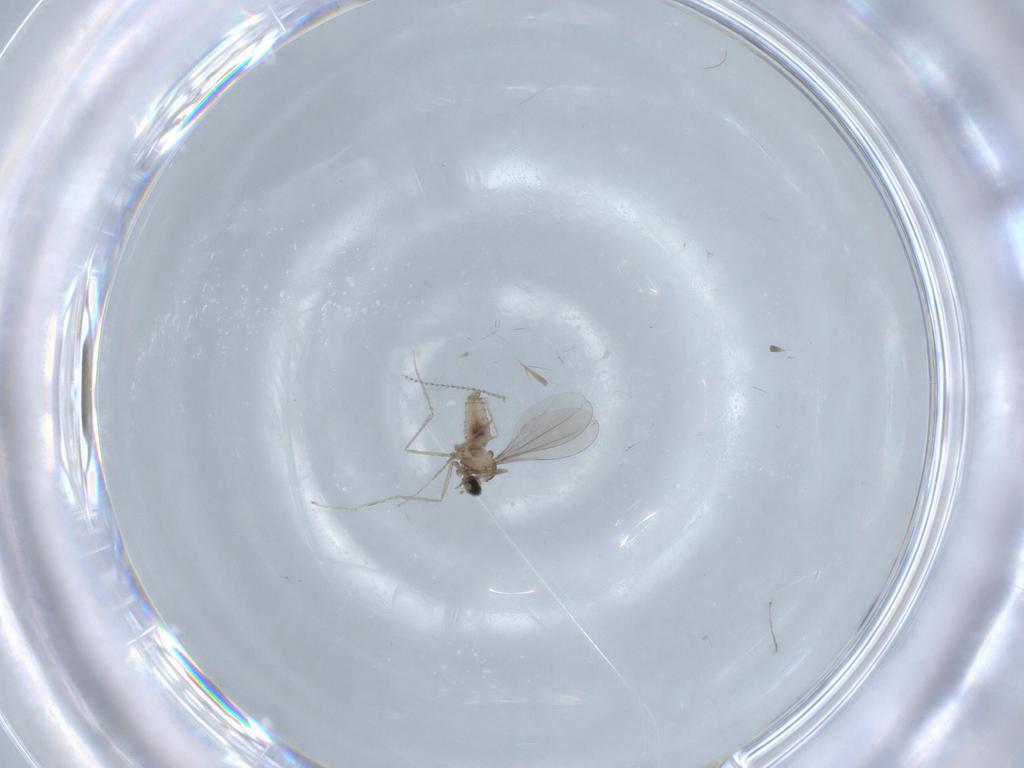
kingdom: Animalia
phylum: Arthropoda
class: Insecta
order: Diptera
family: Cecidomyiidae
